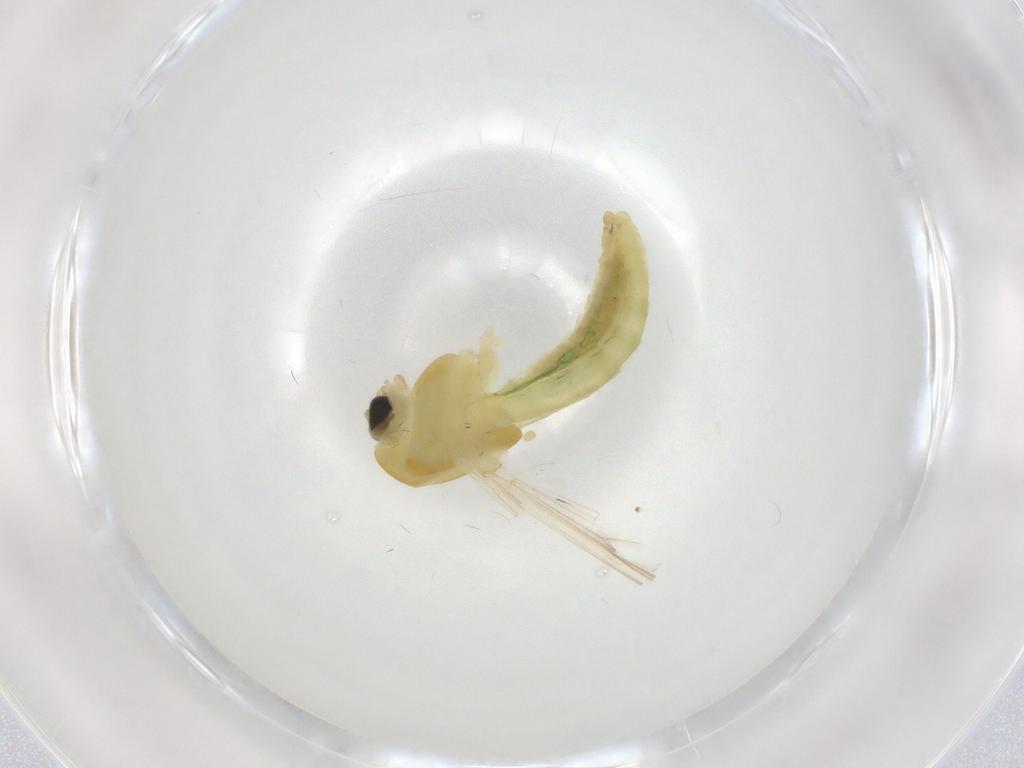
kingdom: Animalia
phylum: Arthropoda
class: Insecta
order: Diptera
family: Chironomidae
